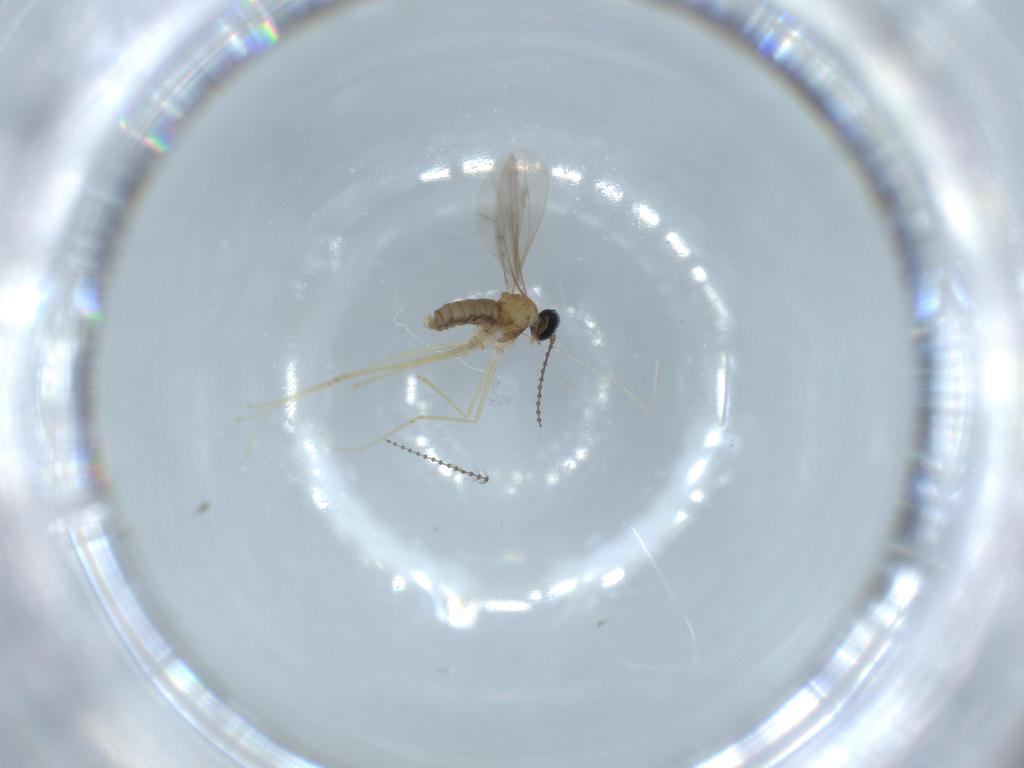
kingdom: Animalia
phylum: Arthropoda
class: Insecta
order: Diptera
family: Cecidomyiidae
